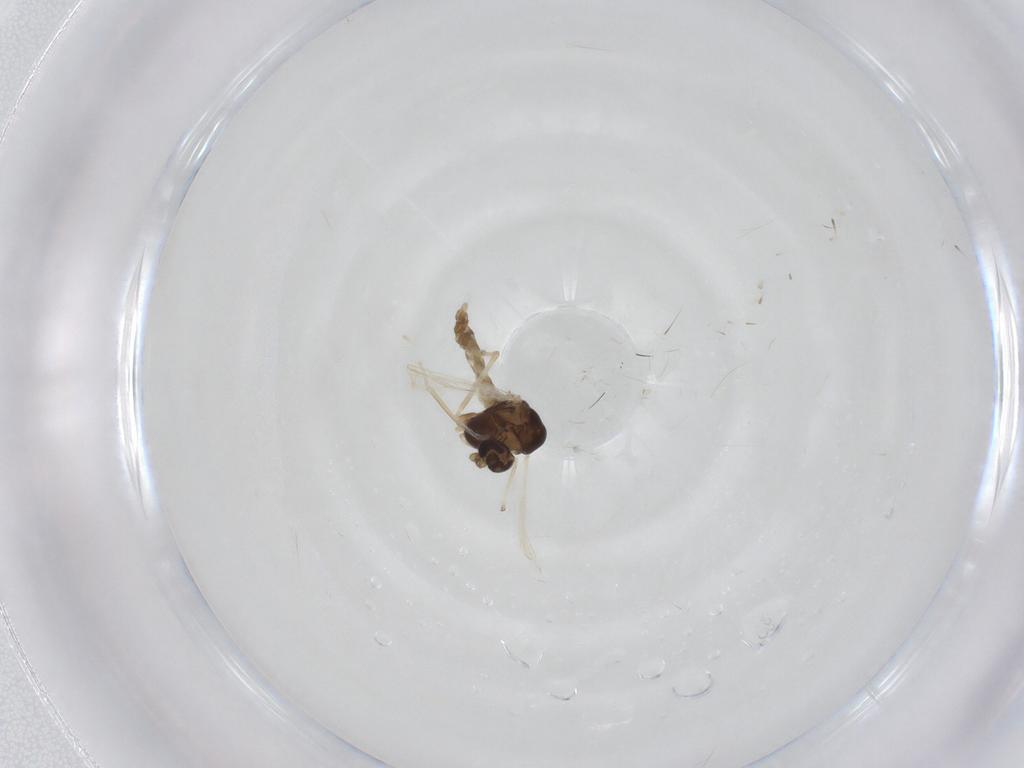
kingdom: Animalia
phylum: Arthropoda
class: Insecta
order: Diptera
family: Chironomidae
